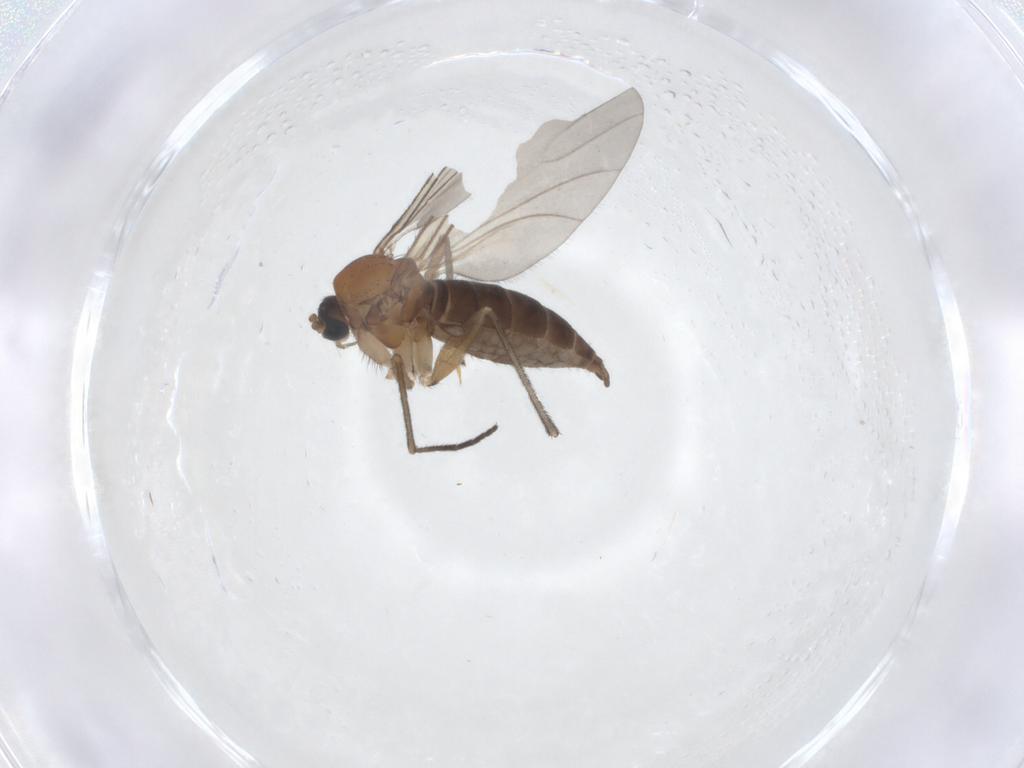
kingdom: Animalia
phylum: Arthropoda
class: Insecta
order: Diptera
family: Sciaridae
